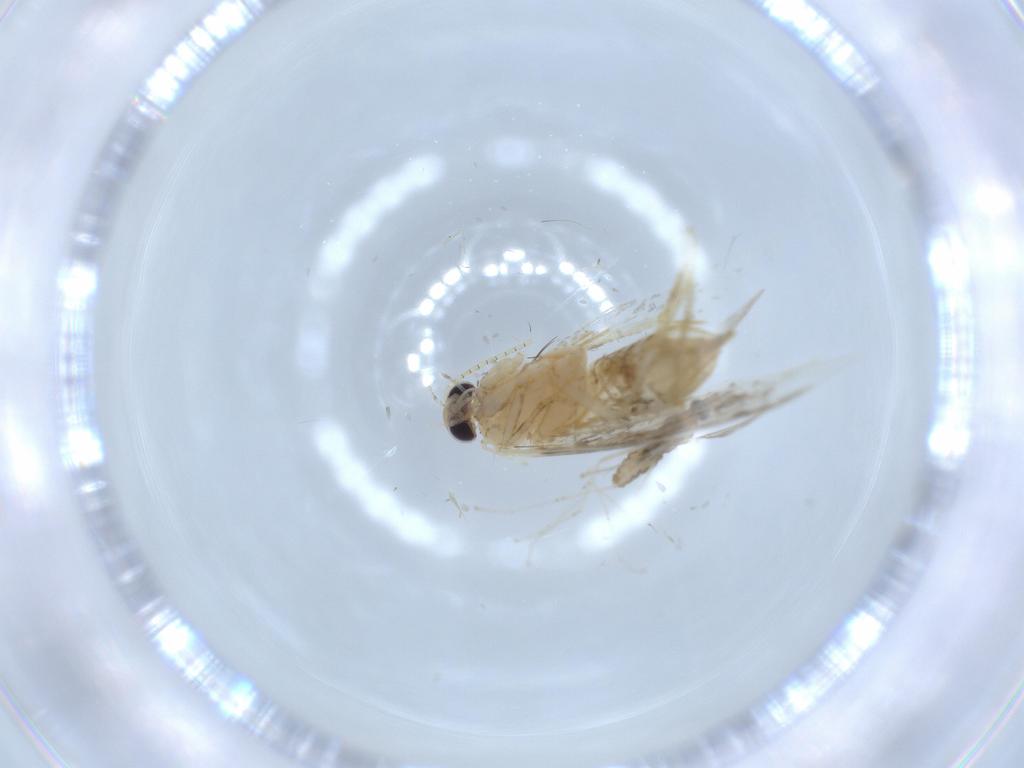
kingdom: Animalia
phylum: Arthropoda
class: Insecta
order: Lepidoptera
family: Tineidae
